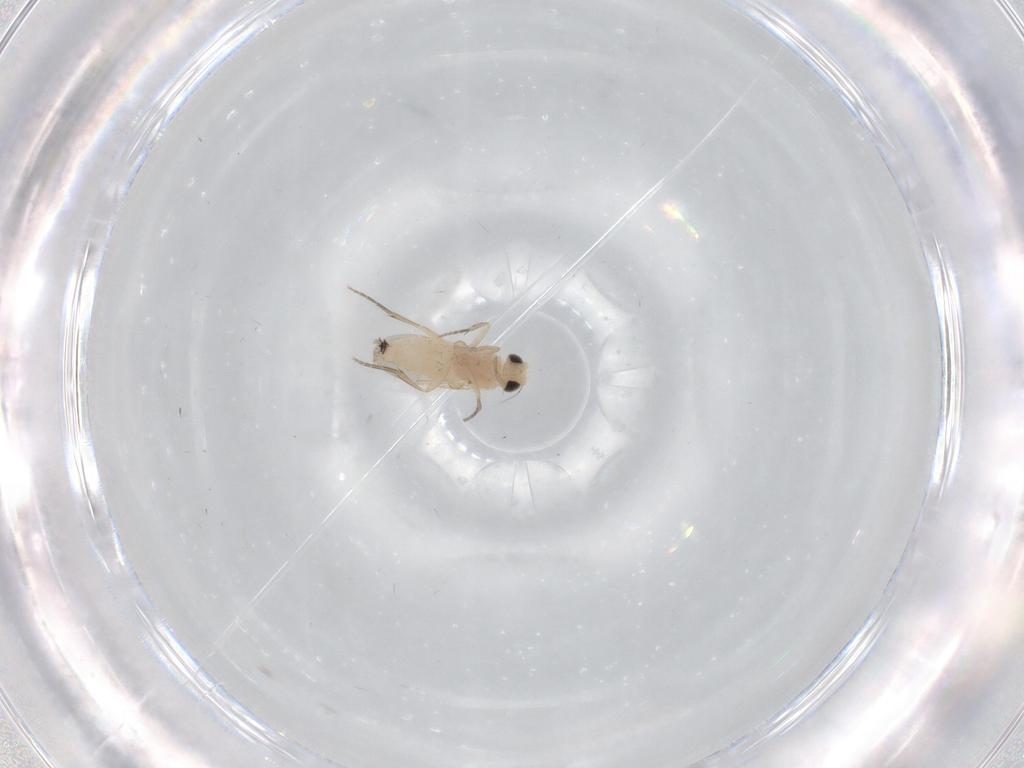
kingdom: Animalia
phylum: Arthropoda
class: Insecta
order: Diptera
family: Phoridae
